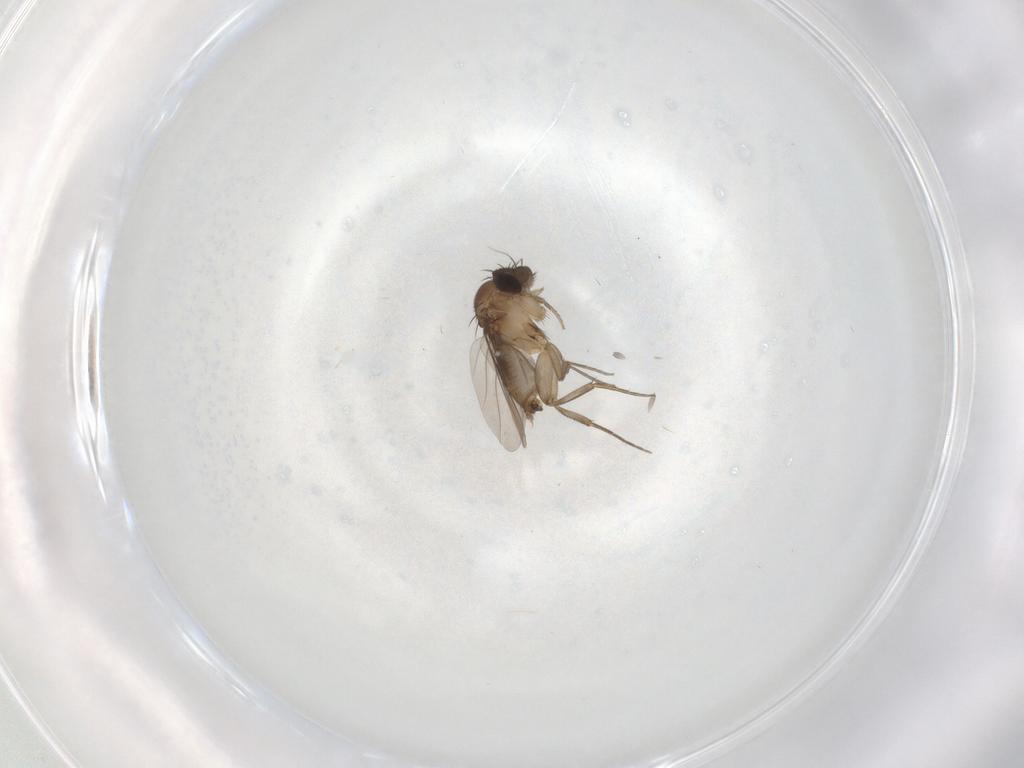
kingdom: Animalia
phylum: Arthropoda
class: Insecta
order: Diptera
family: Phoridae
